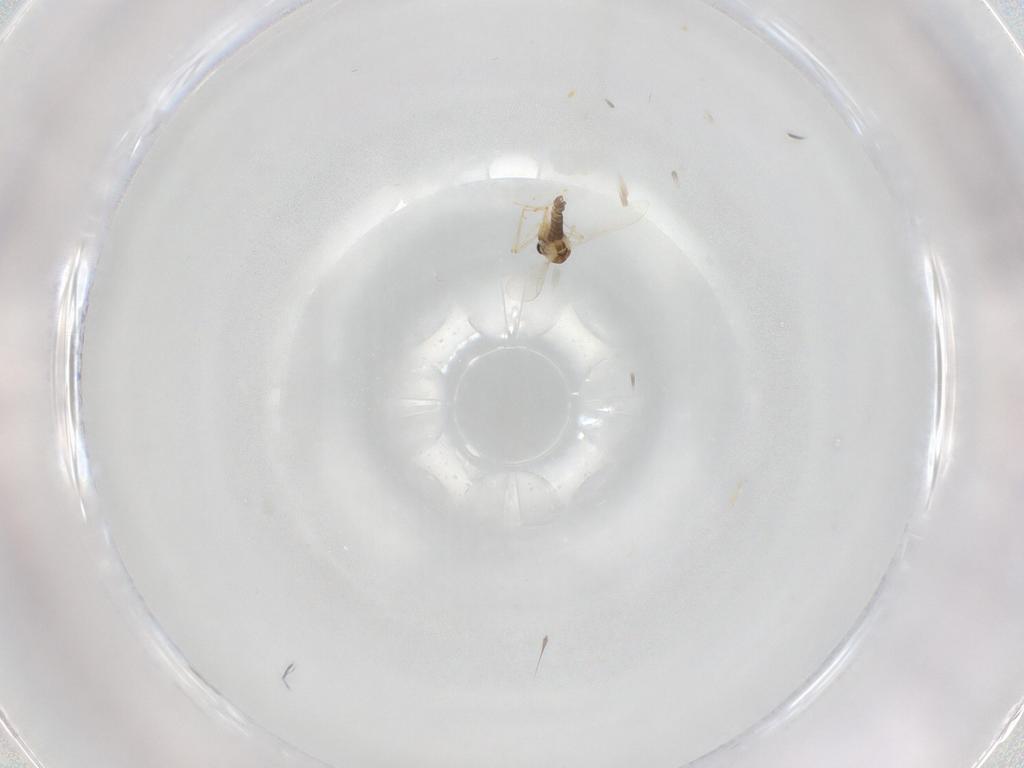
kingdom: Animalia
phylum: Arthropoda
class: Insecta
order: Diptera
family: Chironomidae
